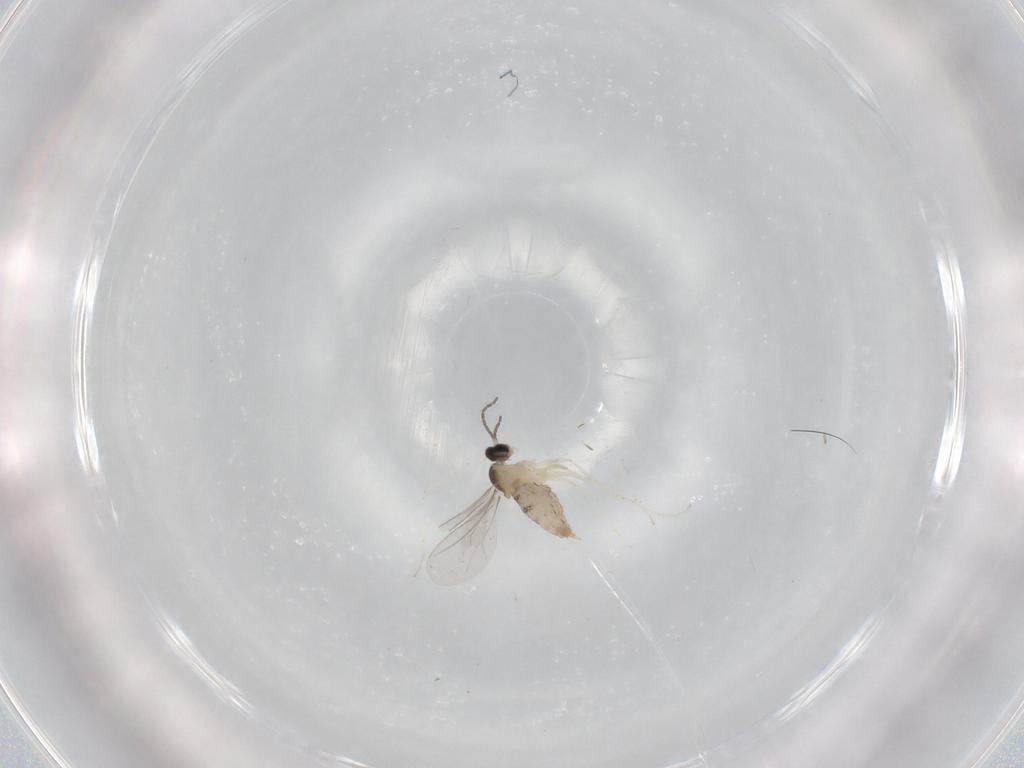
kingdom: Animalia
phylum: Arthropoda
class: Insecta
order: Diptera
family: Cecidomyiidae
